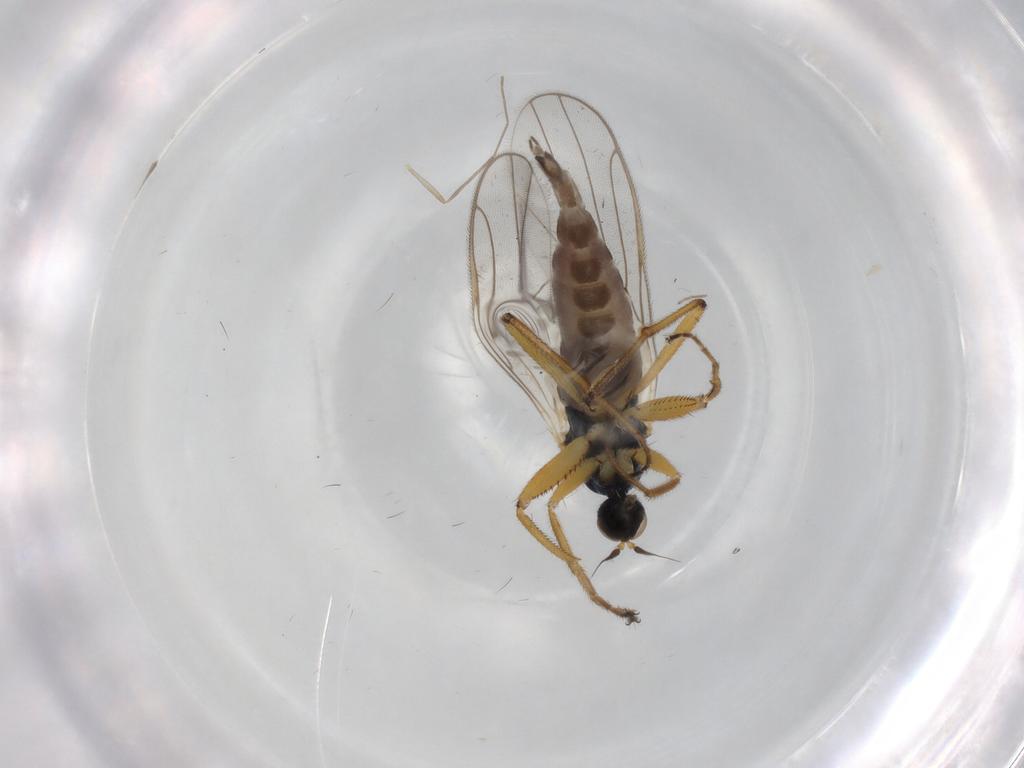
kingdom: Animalia
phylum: Arthropoda
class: Insecta
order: Diptera
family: Hybotidae
